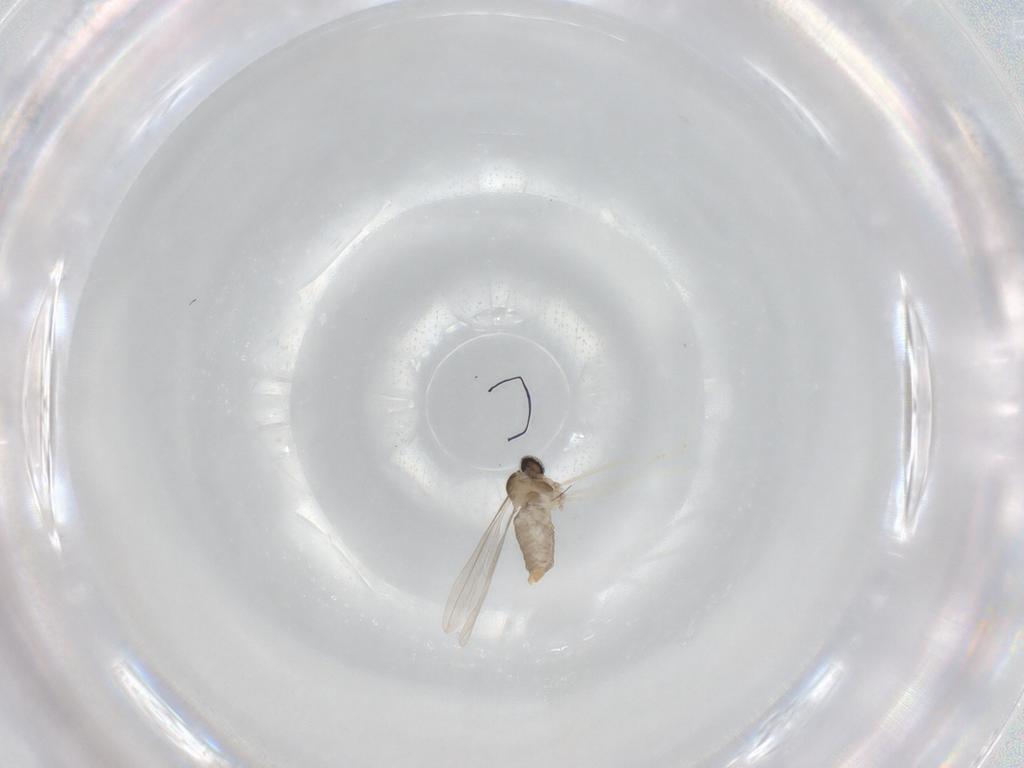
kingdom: Animalia
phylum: Arthropoda
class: Insecta
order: Diptera
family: Cecidomyiidae
